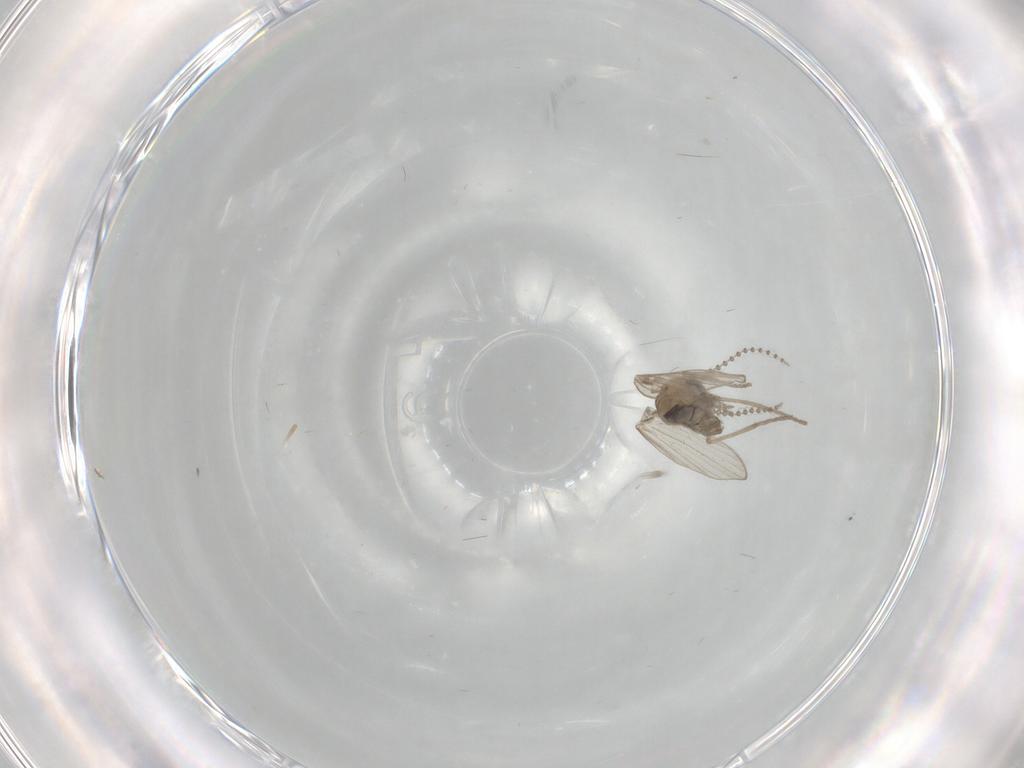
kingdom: Animalia
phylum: Arthropoda
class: Insecta
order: Diptera
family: Psychodidae
